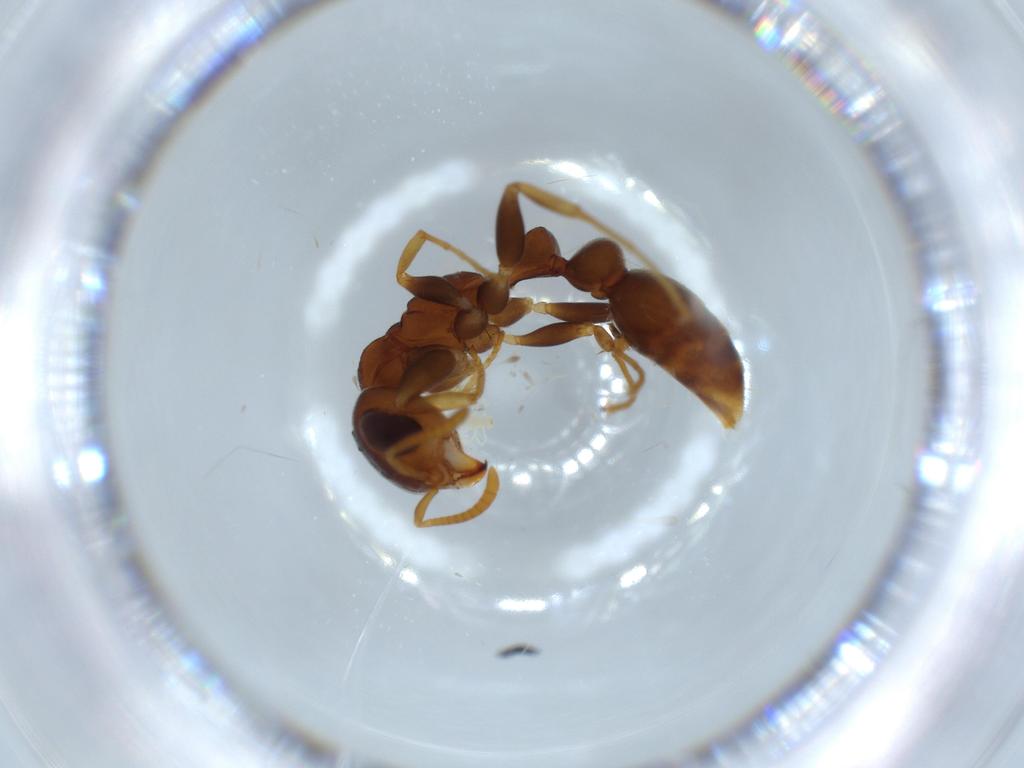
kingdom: Animalia
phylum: Arthropoda
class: Insecta
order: Hymenoptera
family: Formicidae
